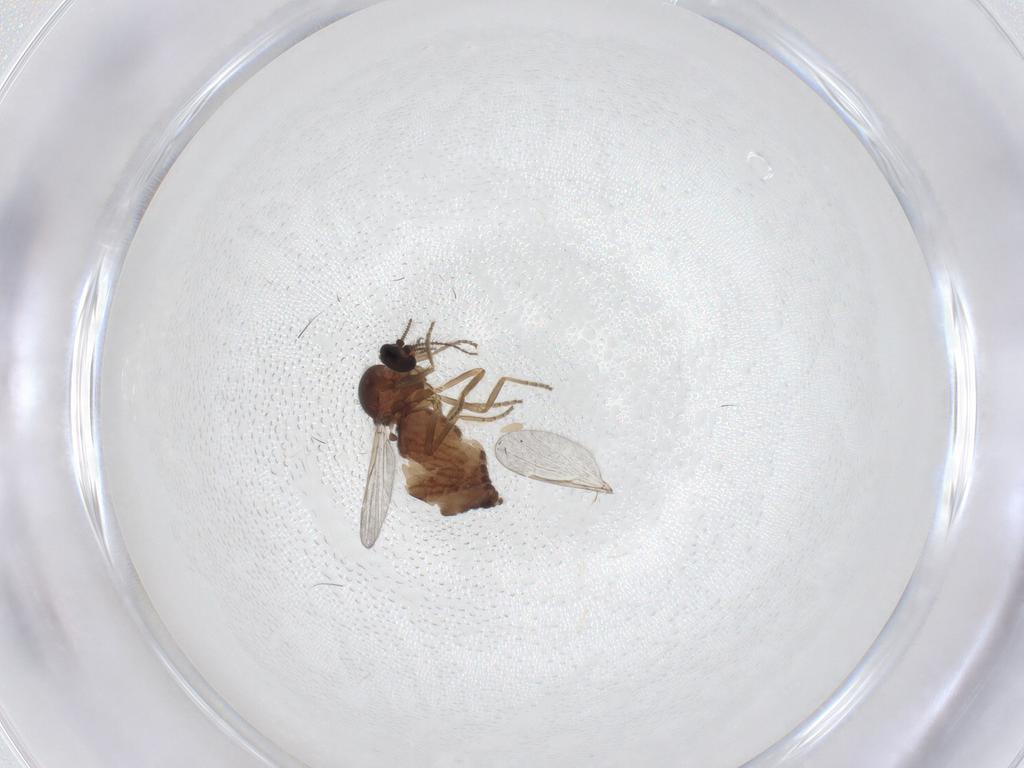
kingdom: Animalia
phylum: Arthropoda
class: Insecta
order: Diptera
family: Ceratopogonidae
